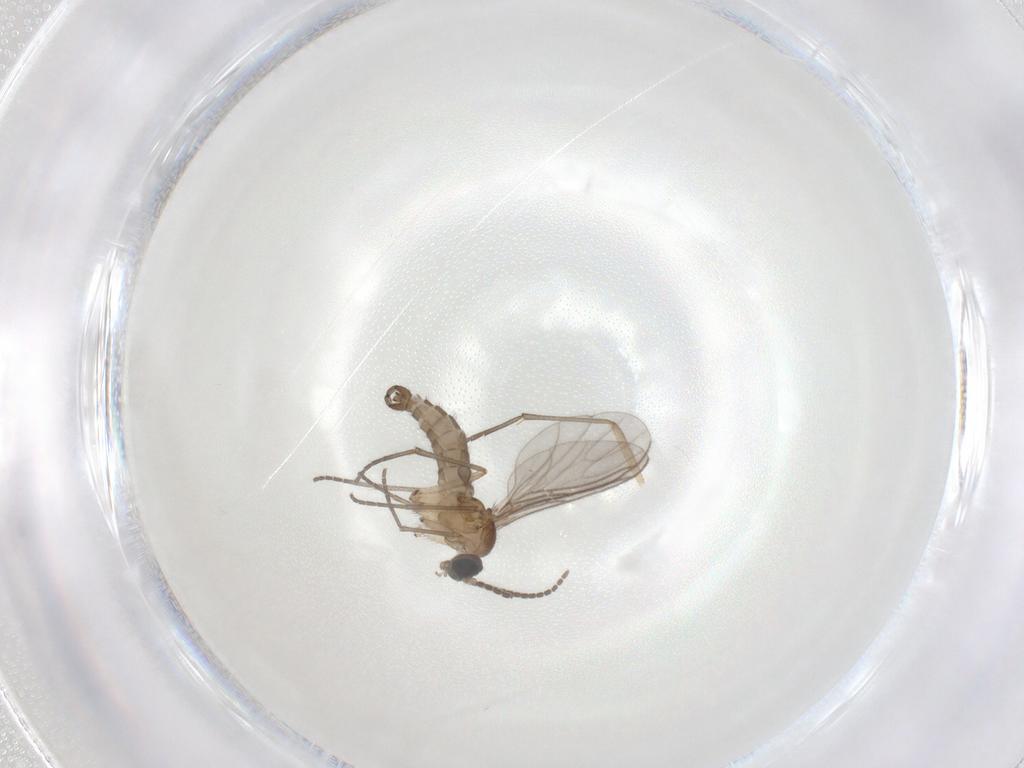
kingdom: Animalia
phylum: Arthropoda
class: Insecta
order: Diptera
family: Sciaridae
